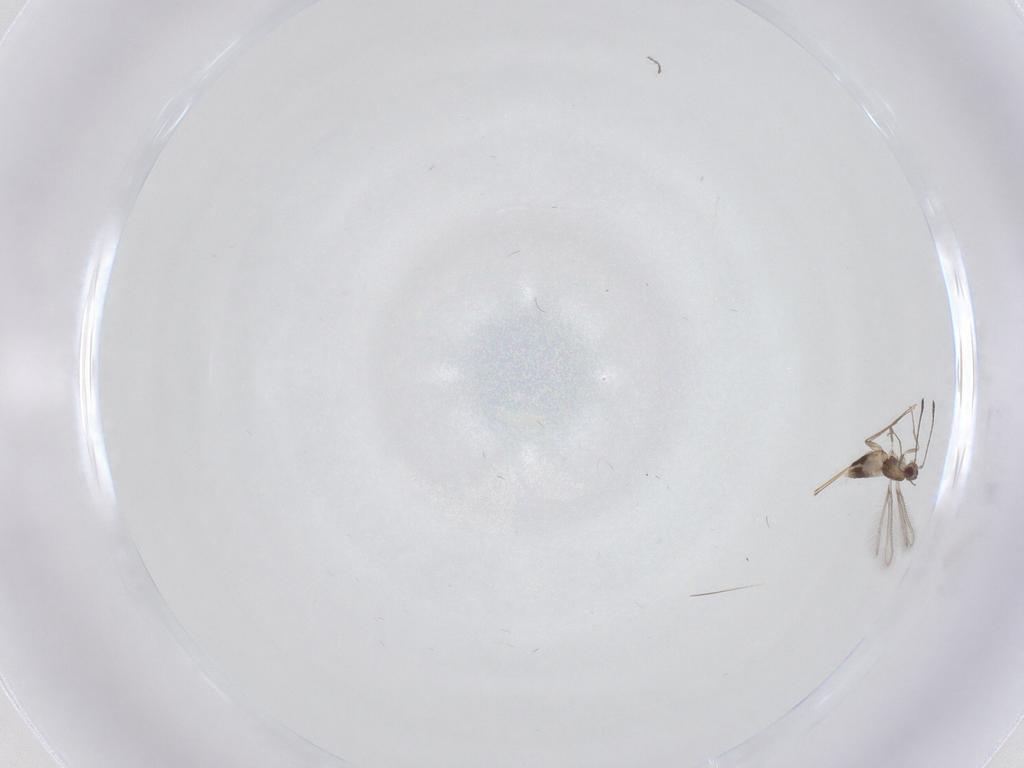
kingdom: Animalia
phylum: Arthropoda
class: Insecta
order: Hymenoptera
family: Mymaridae
